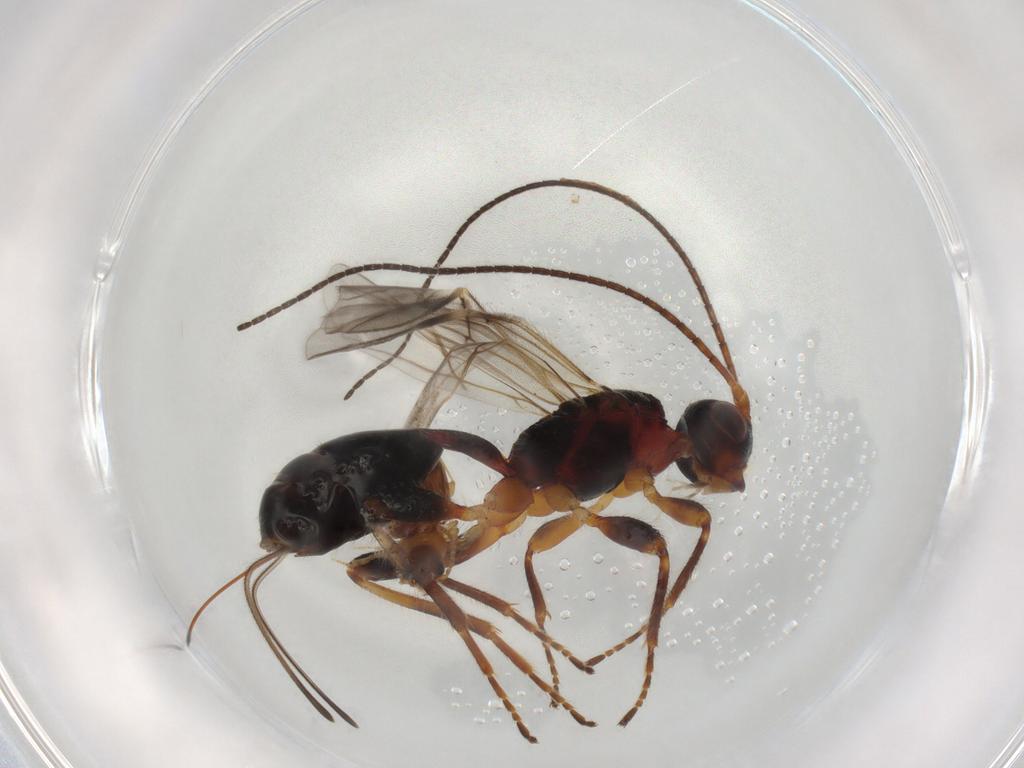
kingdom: Animalia
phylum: Arthropoda
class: Insecta
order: Hymenoptera
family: Braconidae
